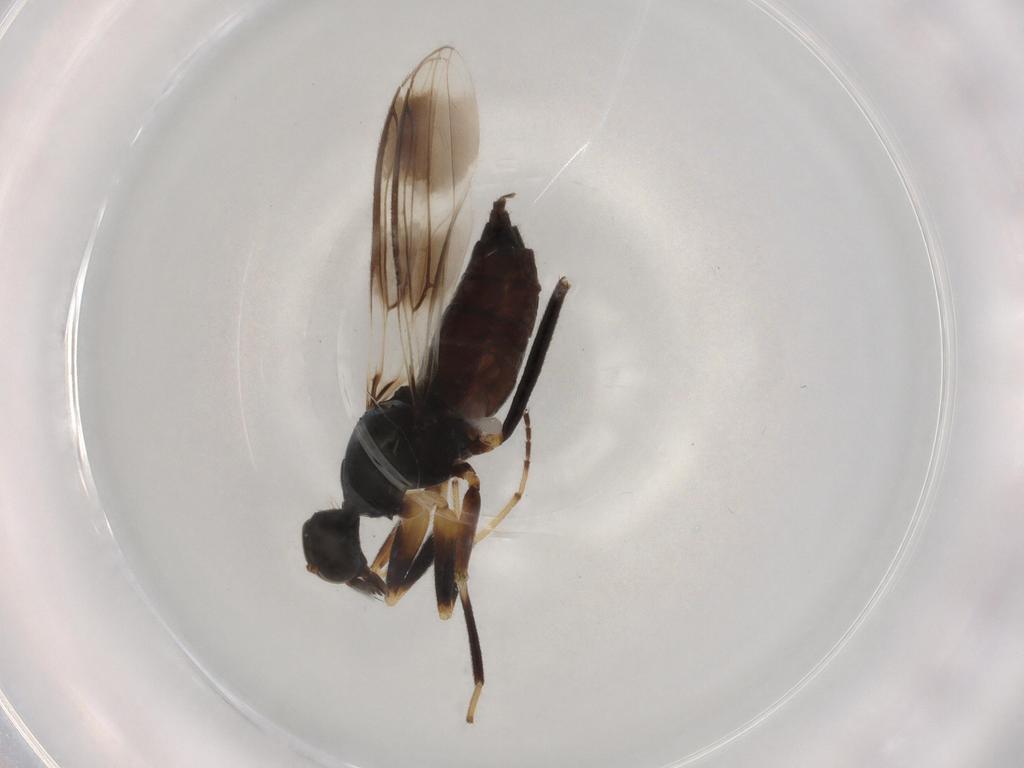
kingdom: Animalia
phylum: Arthropoda
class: Insecta
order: Diptera
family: Hybotidae
